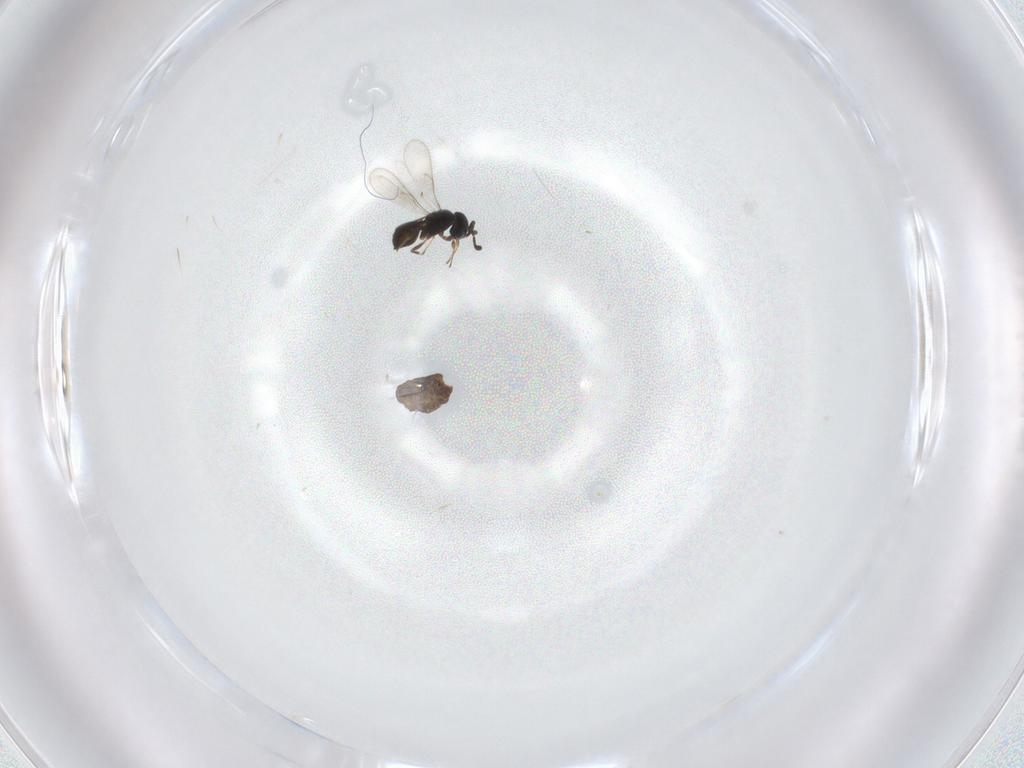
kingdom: Animalia
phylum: Arthropoda
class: Insecta
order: Hymenoptera
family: Scelionidae
